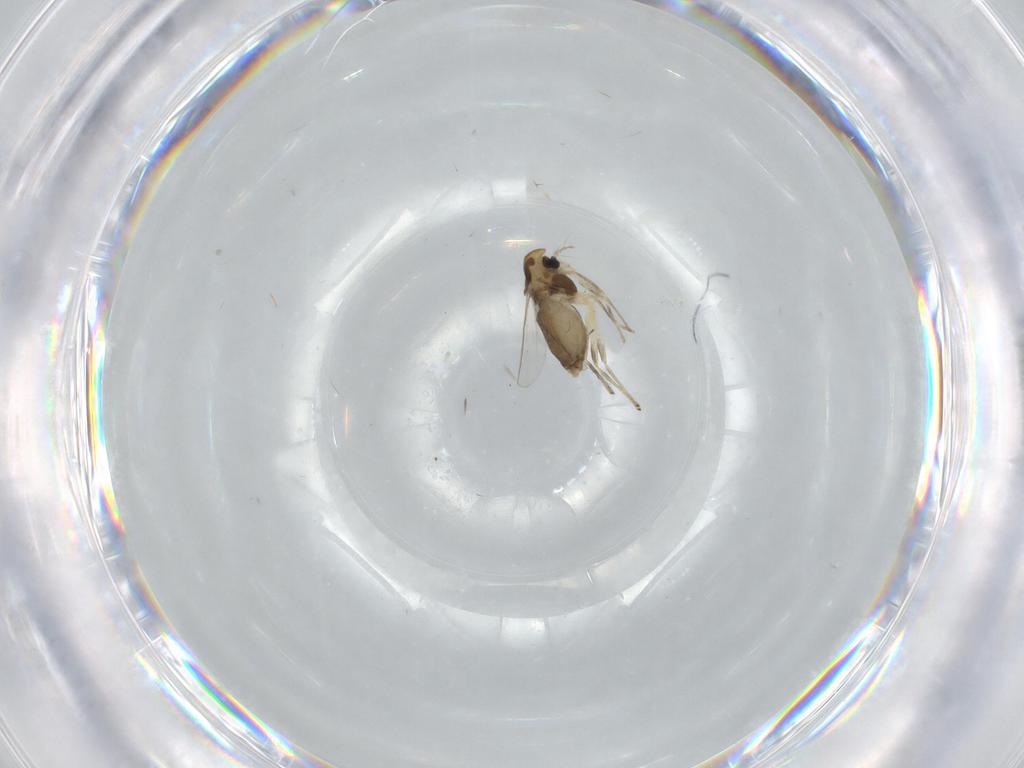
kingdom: Animalia
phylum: Arthropoda
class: Insecta
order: Diptera
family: Chironomidae
